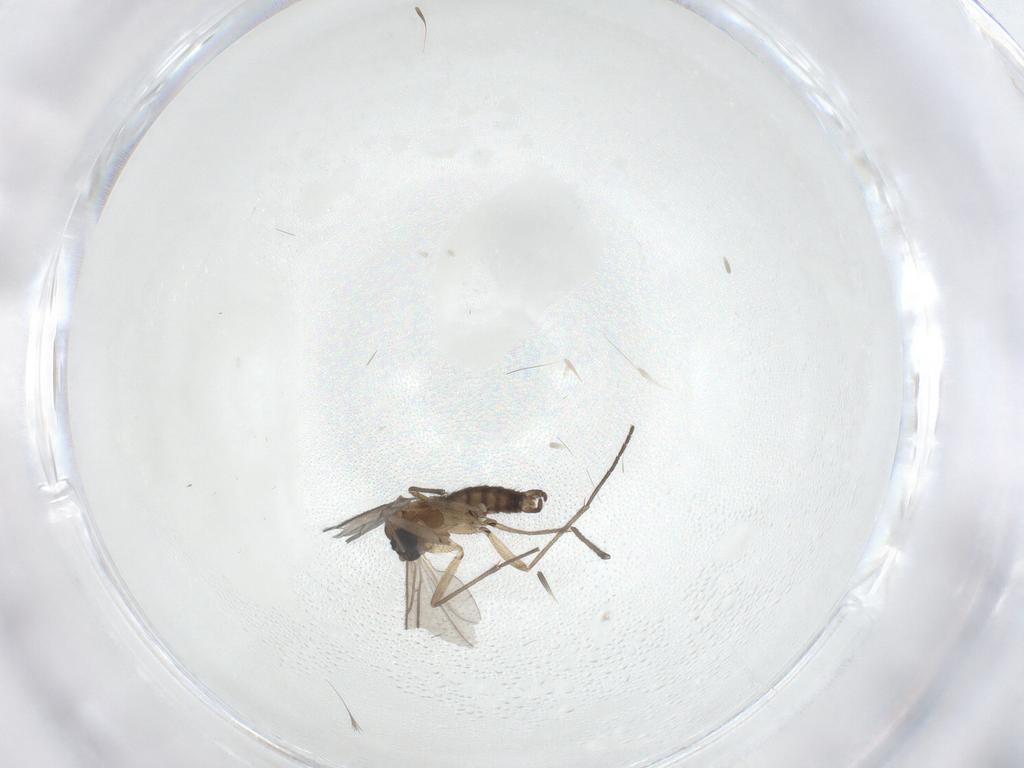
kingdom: Animalia
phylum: Arthropoda
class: Insecta
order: Diptera
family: Sciaridae
